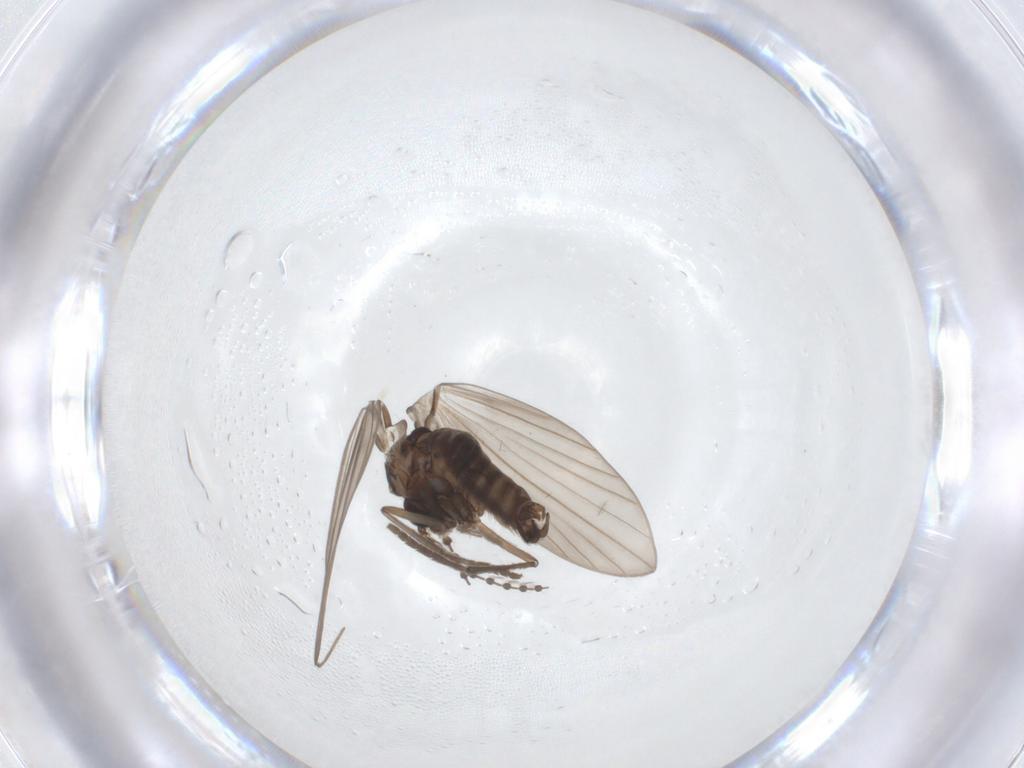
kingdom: Animalia
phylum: Arthropoda
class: Insecta
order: Diptera
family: Psychodidae
